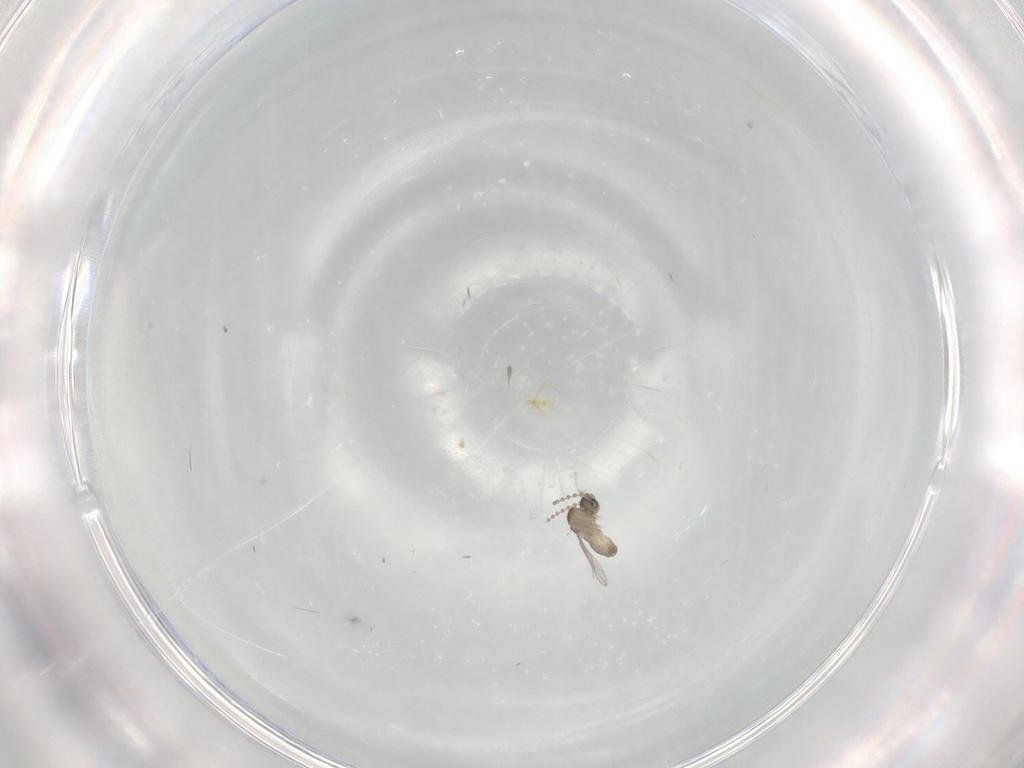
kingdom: Animalia
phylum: Arthropoda
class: Insecta
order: Diptera
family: Cecidomyiidae
